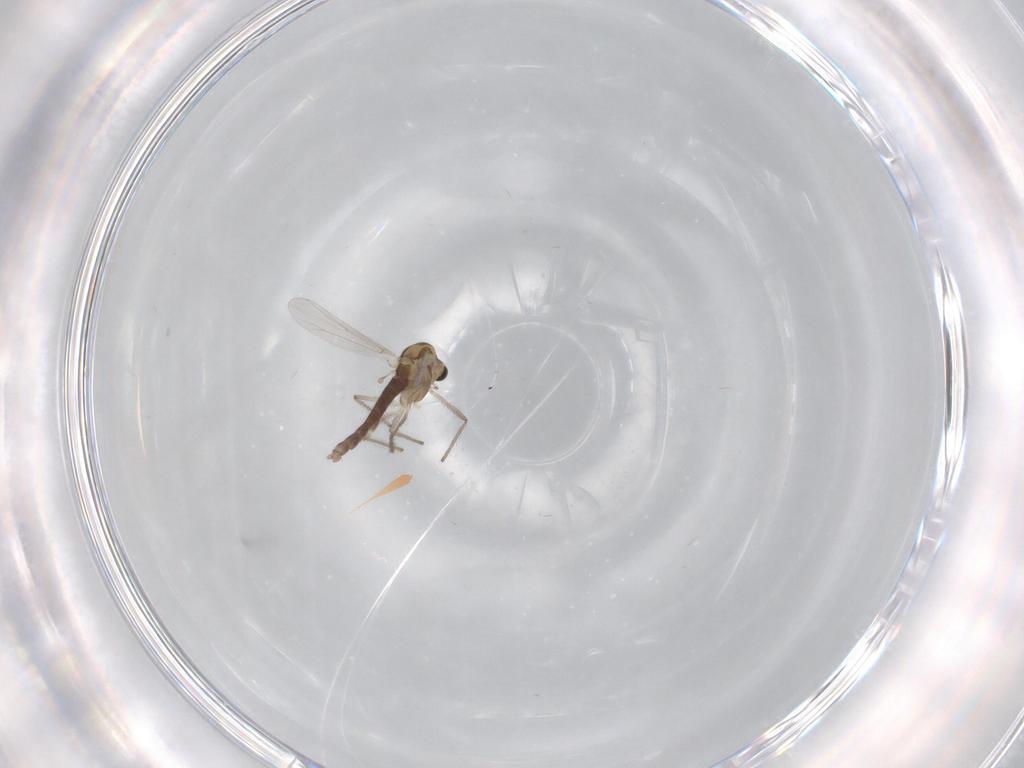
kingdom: Animalia
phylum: Arthropoda
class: Insecta
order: Diptera
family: Chironomidae
